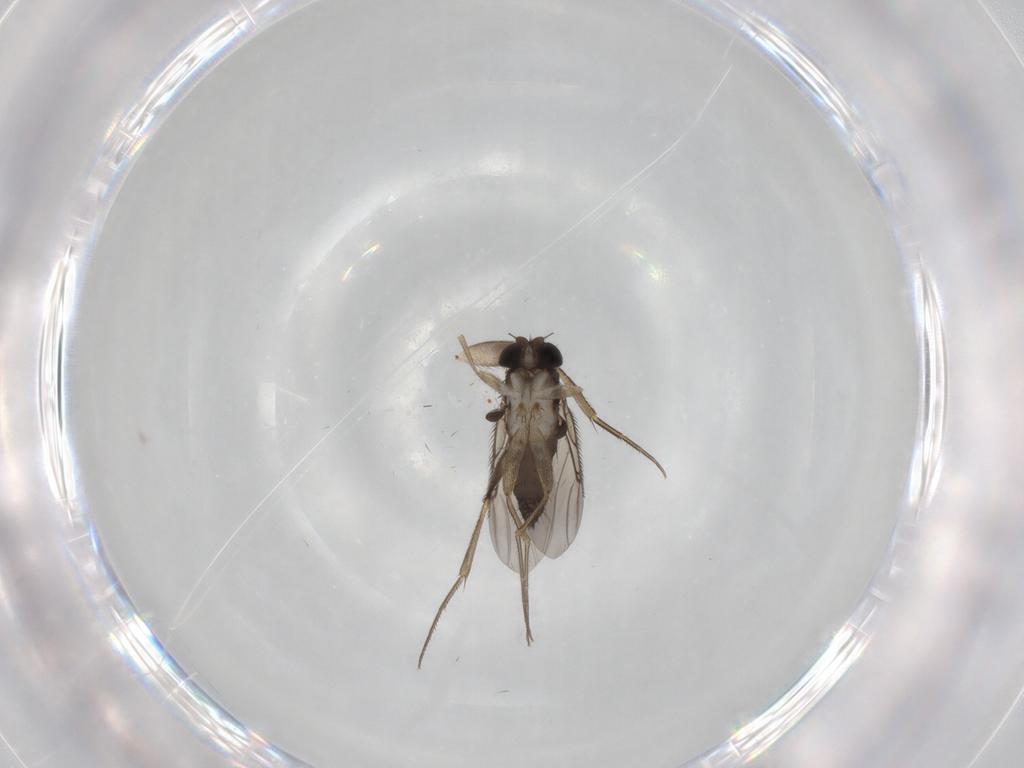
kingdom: Animalia
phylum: Arthropoda
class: Insecta
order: Diptera
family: Phoridae
